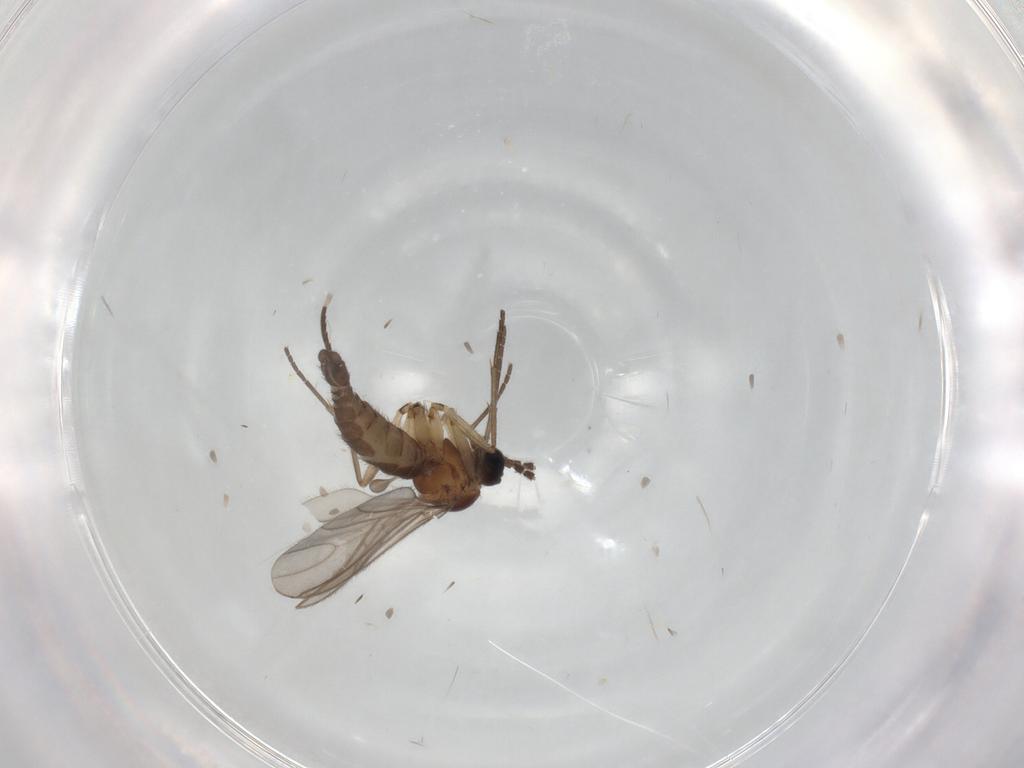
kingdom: Animalia
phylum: Arthropoda
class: Insecta
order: Diptera
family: Sciaridae
